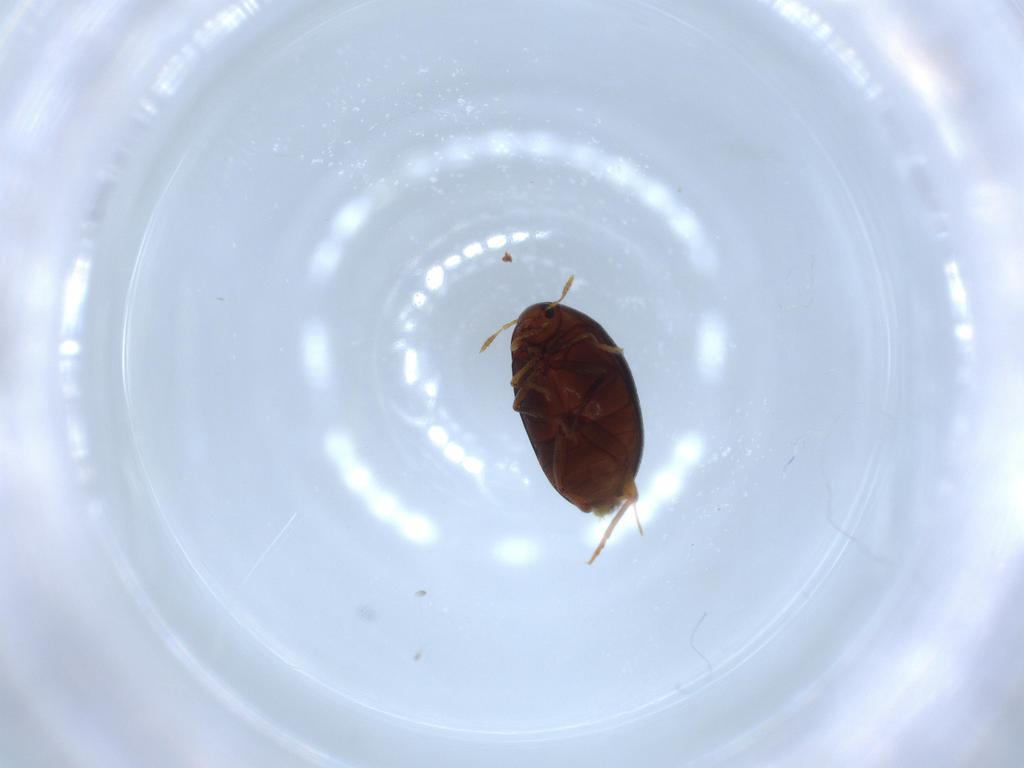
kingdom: Animalia
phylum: Arthropoda
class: Insecta
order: Coleoptera
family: Melandryidae
